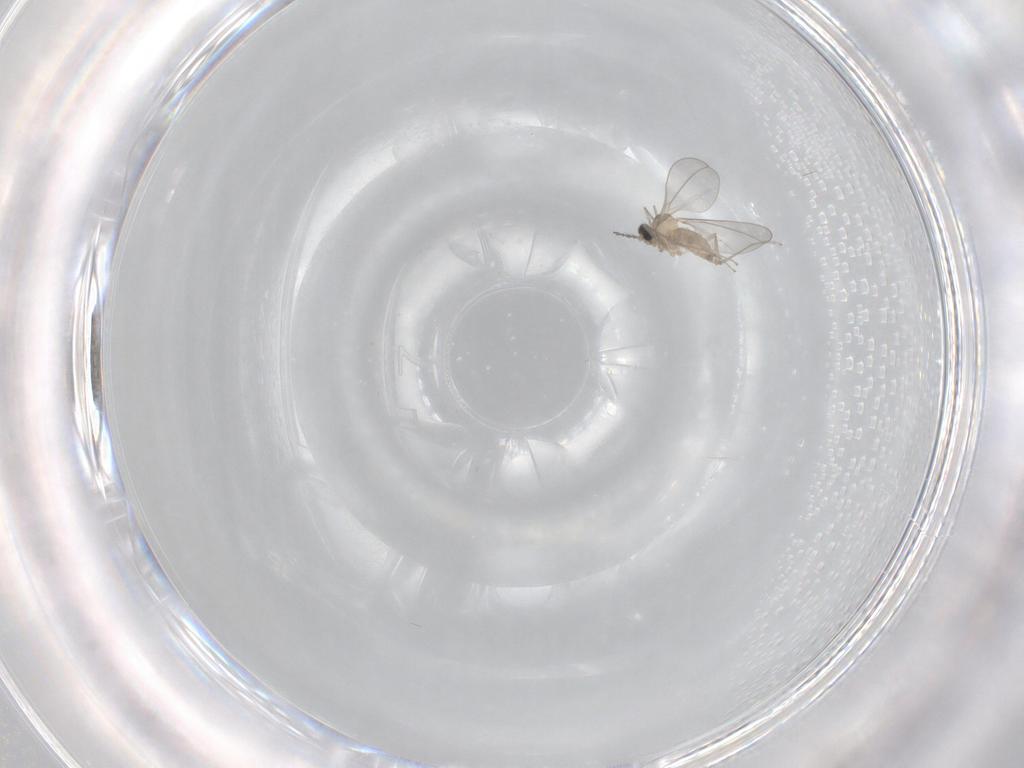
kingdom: Animalia
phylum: Arthropoda
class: Insecta
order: Diptera
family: Cecidomyiidae
